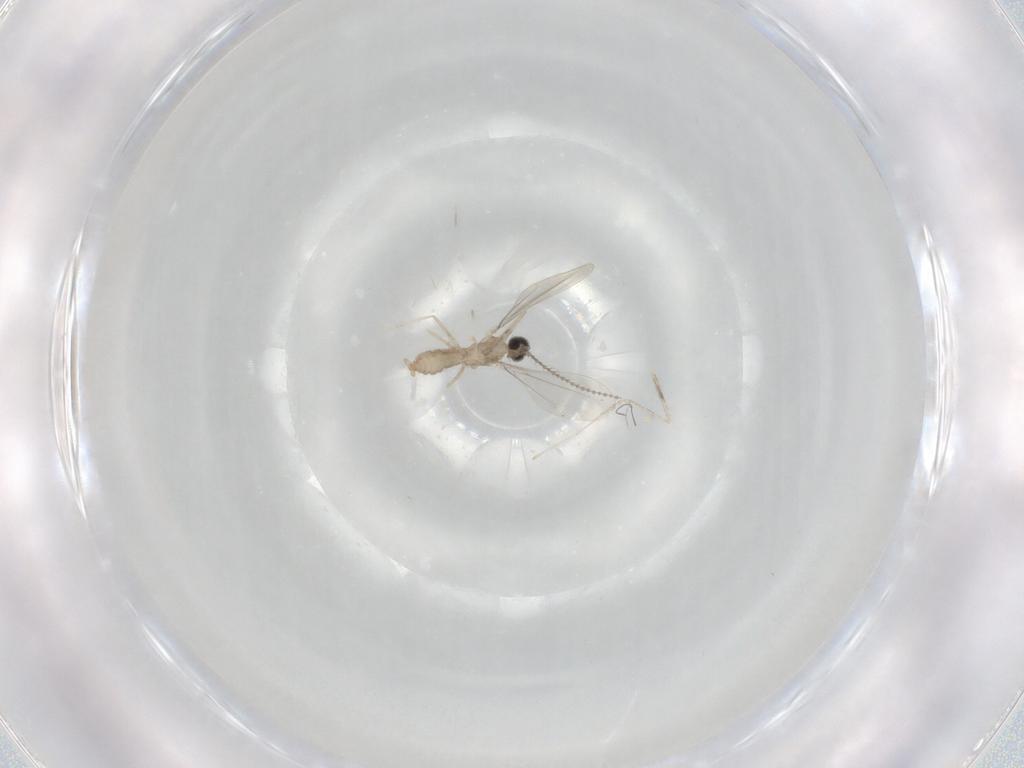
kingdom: Animalia
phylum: Arthropoda
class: Insecta
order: Diptera
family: Cecidomyiidae
